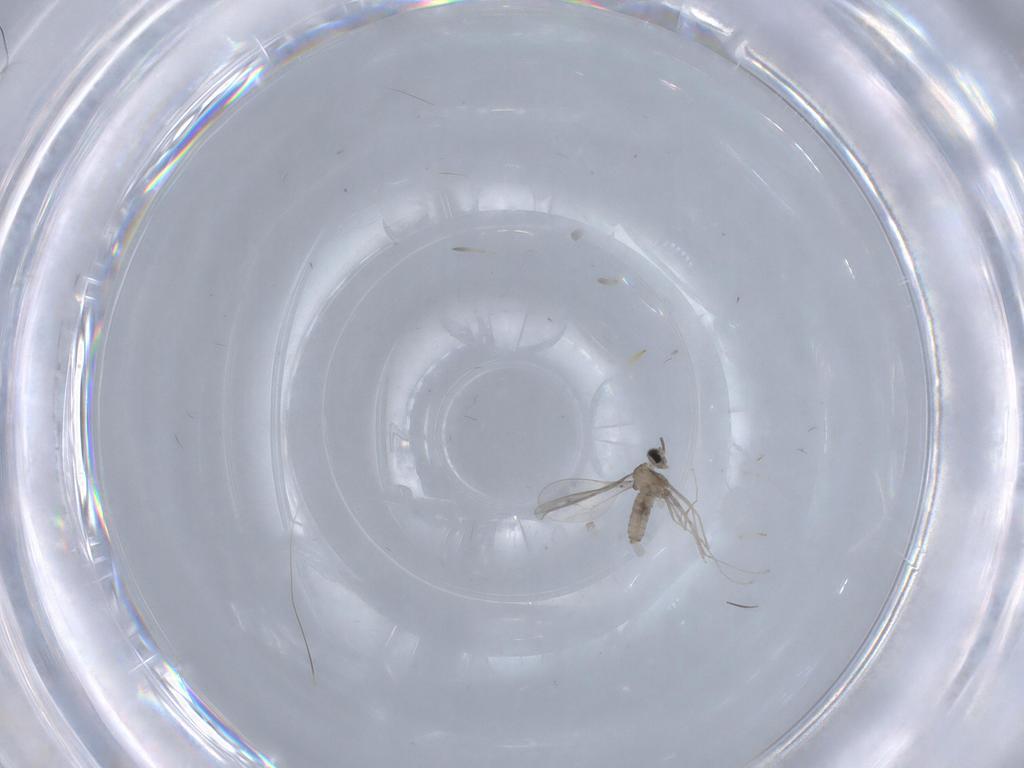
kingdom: Animalia
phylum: Arthropoda
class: Insecta
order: Diptera
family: Cecidomyiidae
